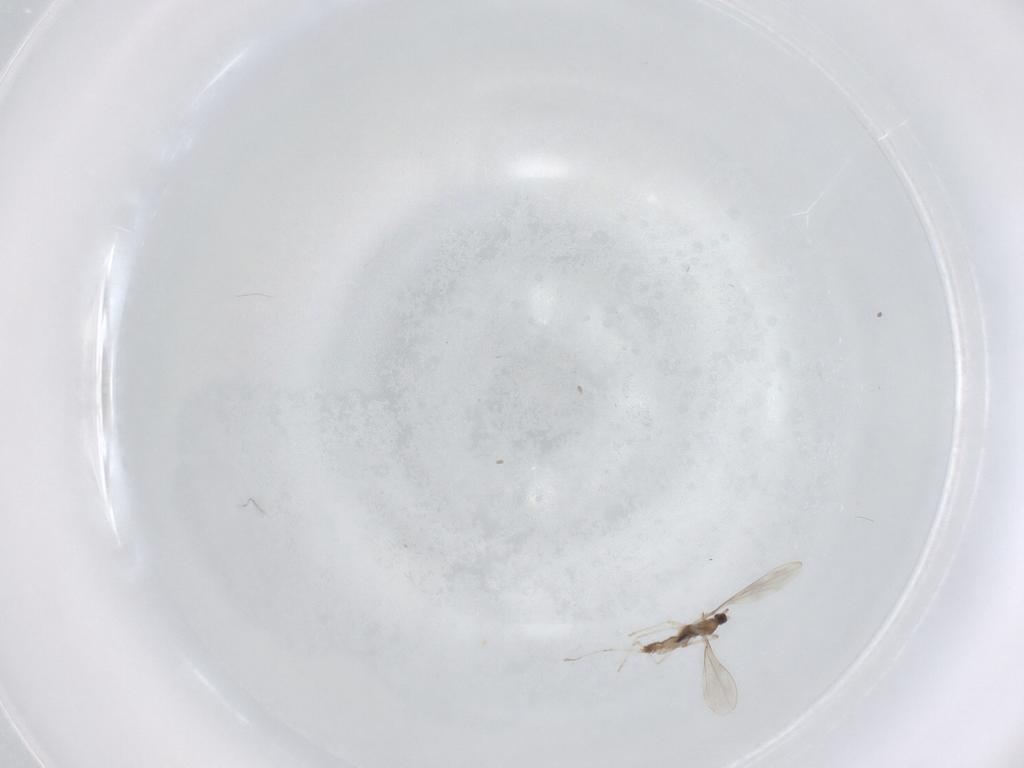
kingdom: Animalia
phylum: Arthropoda
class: Insecta
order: Diptera
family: Cecidomyiidae
